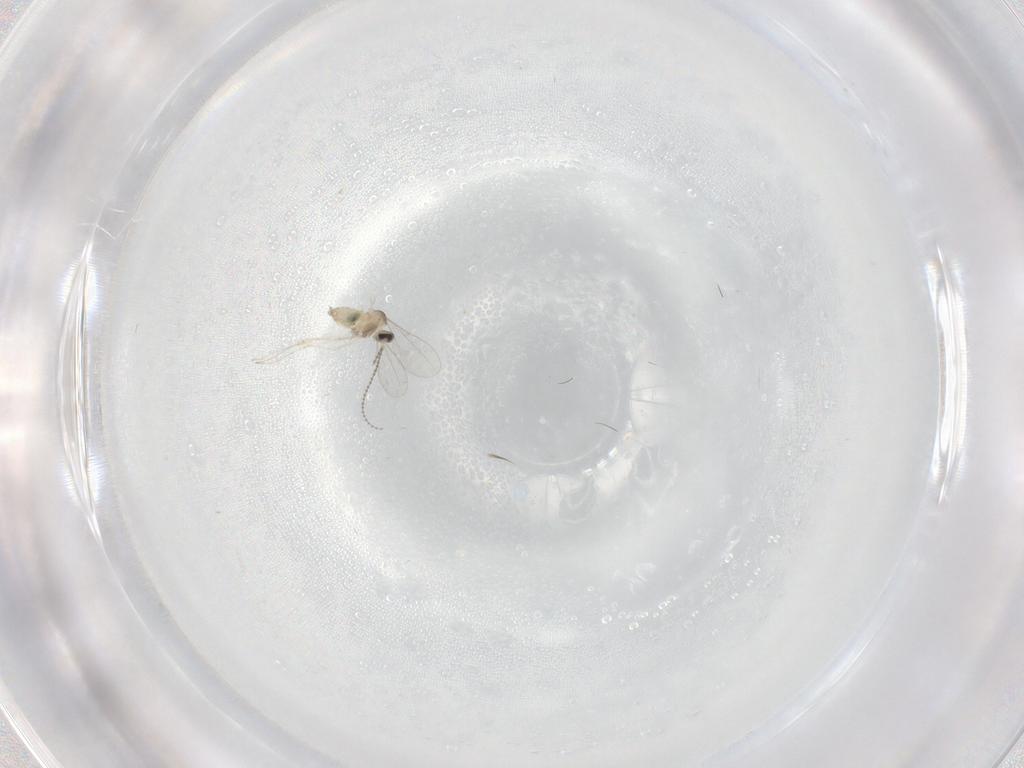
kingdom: Animalia
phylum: Arthropoda
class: Insecta
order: Diptera
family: Cecidomyiidae
